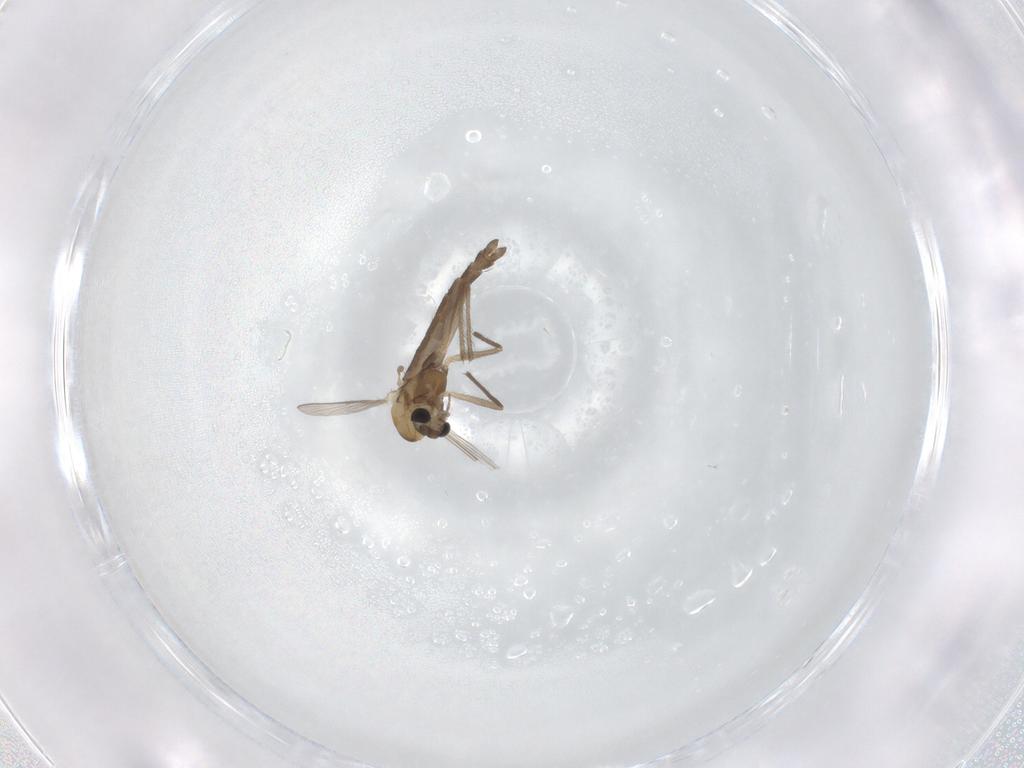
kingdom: Animalia
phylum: Arthropoda
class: Insecta
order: Diptera
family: Chironomidae
